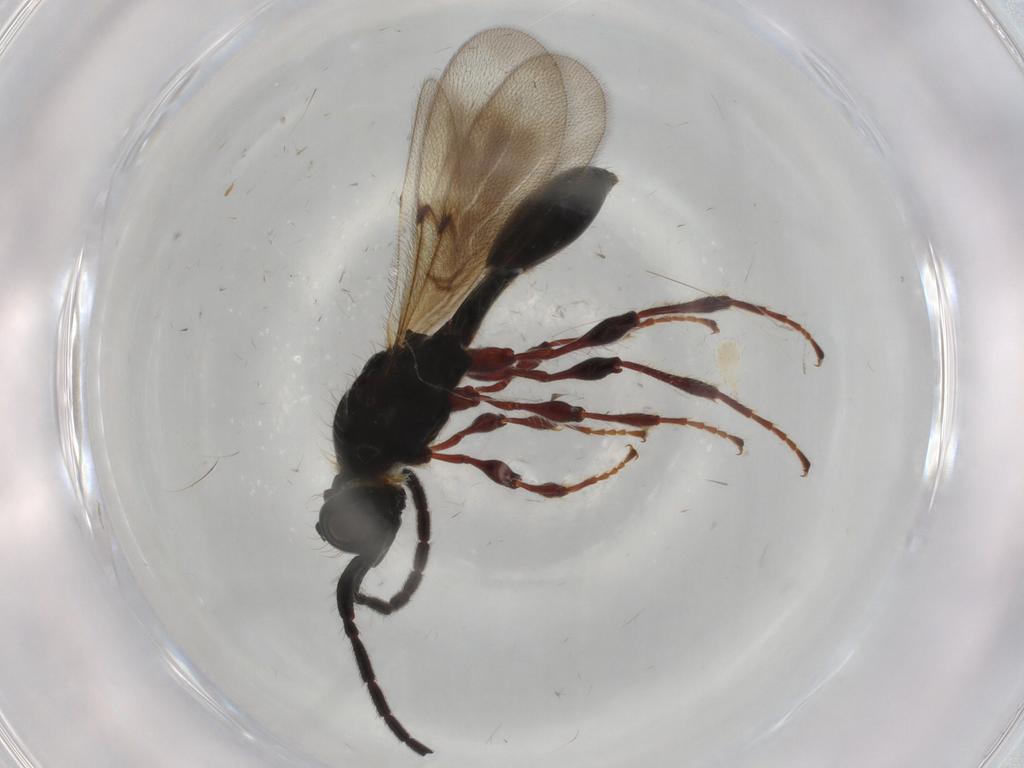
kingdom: Animalia
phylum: Arthropoda
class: Insecta
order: Hymenoptera
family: Diapriidae
